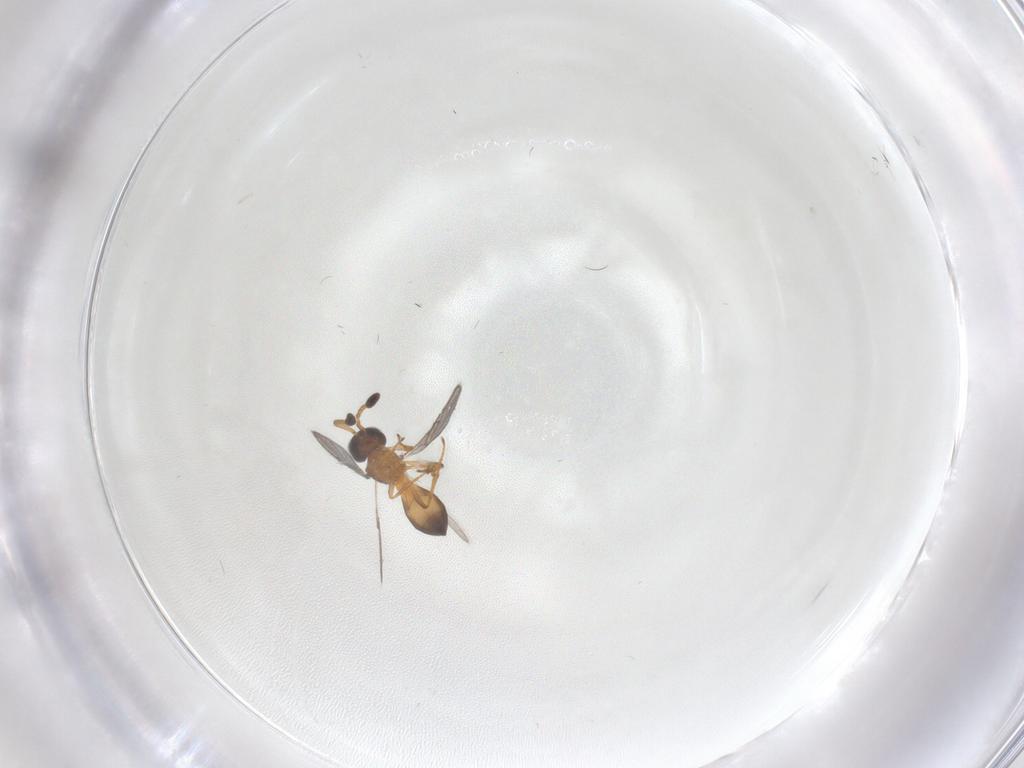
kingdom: Animalia
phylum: Arthropoda
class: Insecta
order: Hymenoptera
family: Scelionidae
